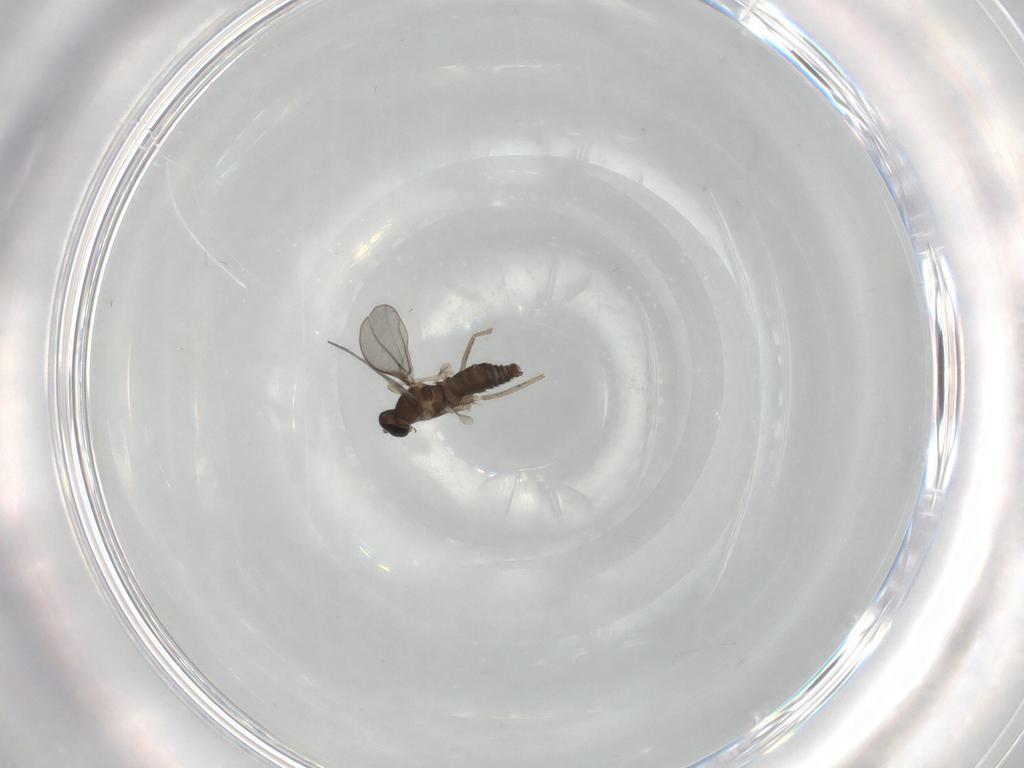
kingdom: Animalia
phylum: Arthropoda
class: Insecta
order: Diptera
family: Cecidomyiidae
